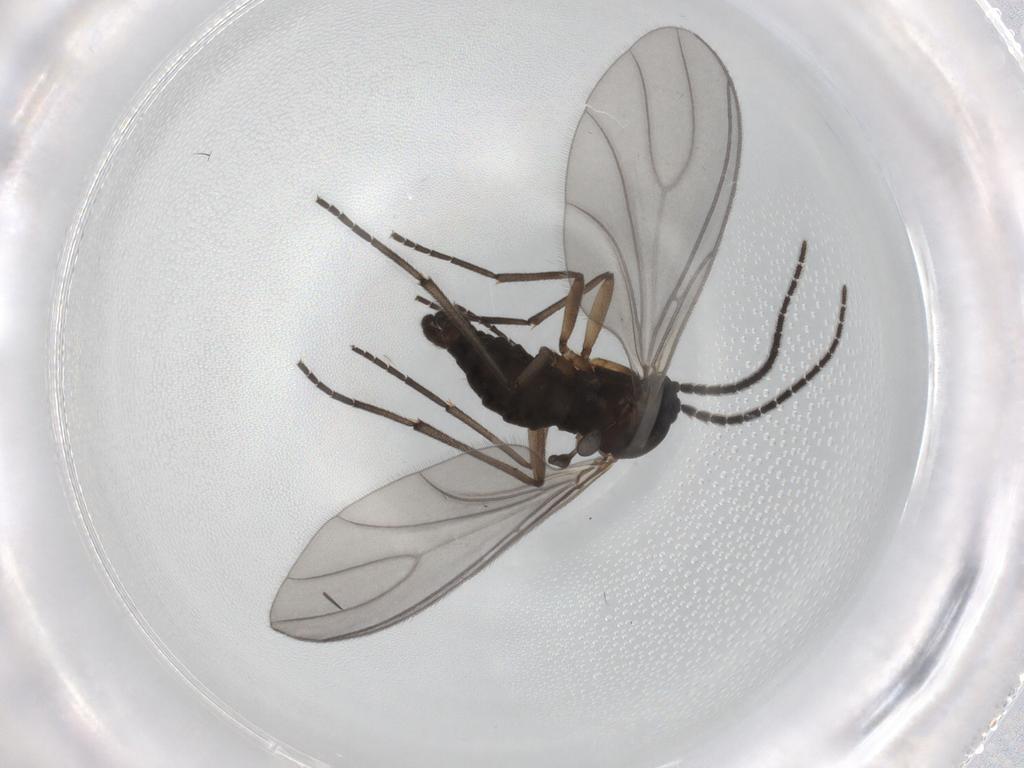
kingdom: Animalia
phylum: Arthropoda
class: Insecta
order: Diptera
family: Sciaridae
